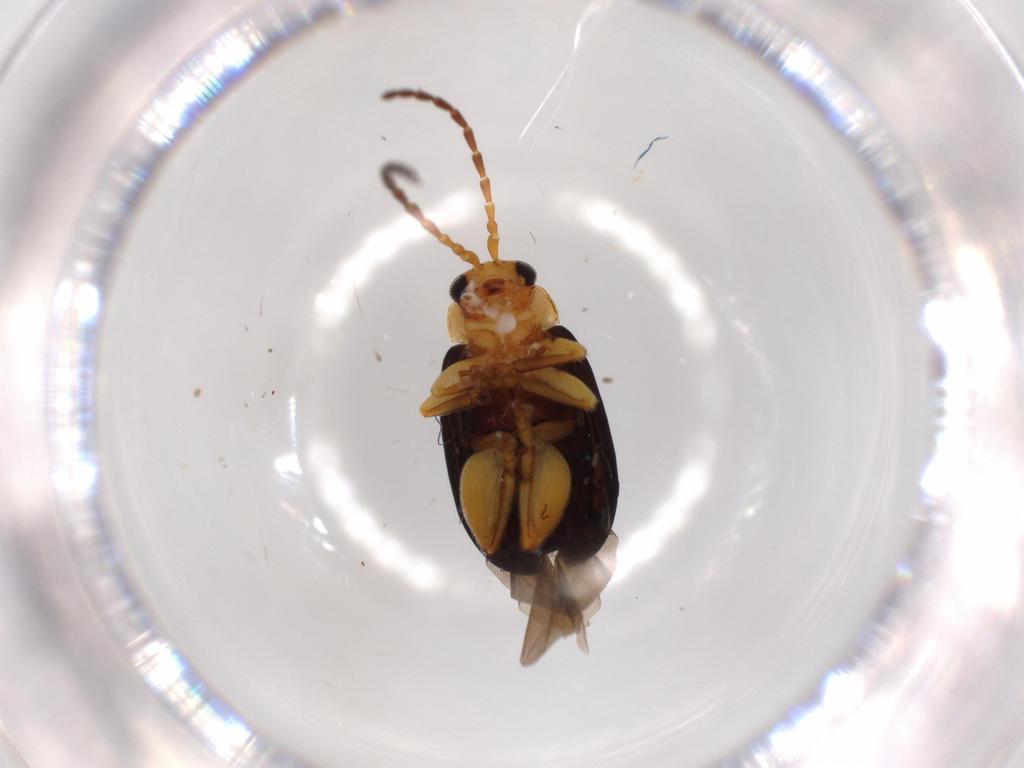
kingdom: Animalia
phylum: Arthropoda
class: Insecta
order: Coleoptera
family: Chrysomelidae
